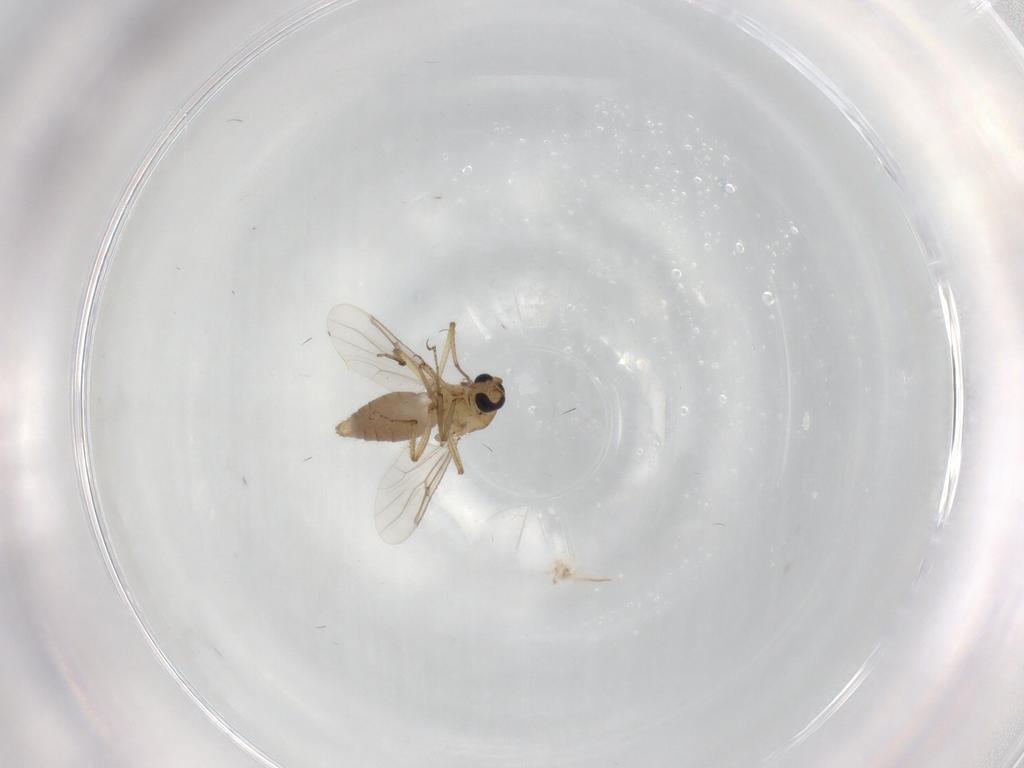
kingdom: Animalia
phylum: Arthropoda
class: Insecta
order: Diptera
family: Ceratopogonidae
